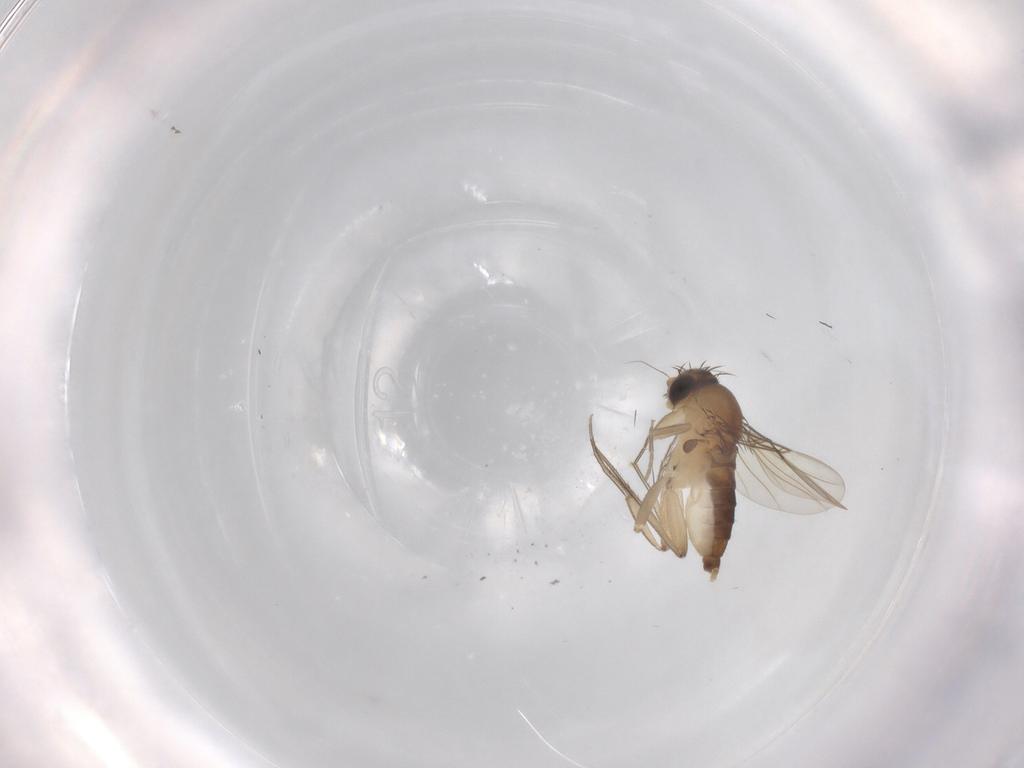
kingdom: Animalia
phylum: Arthropoda
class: Insecta
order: Diptera
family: Phoridae
